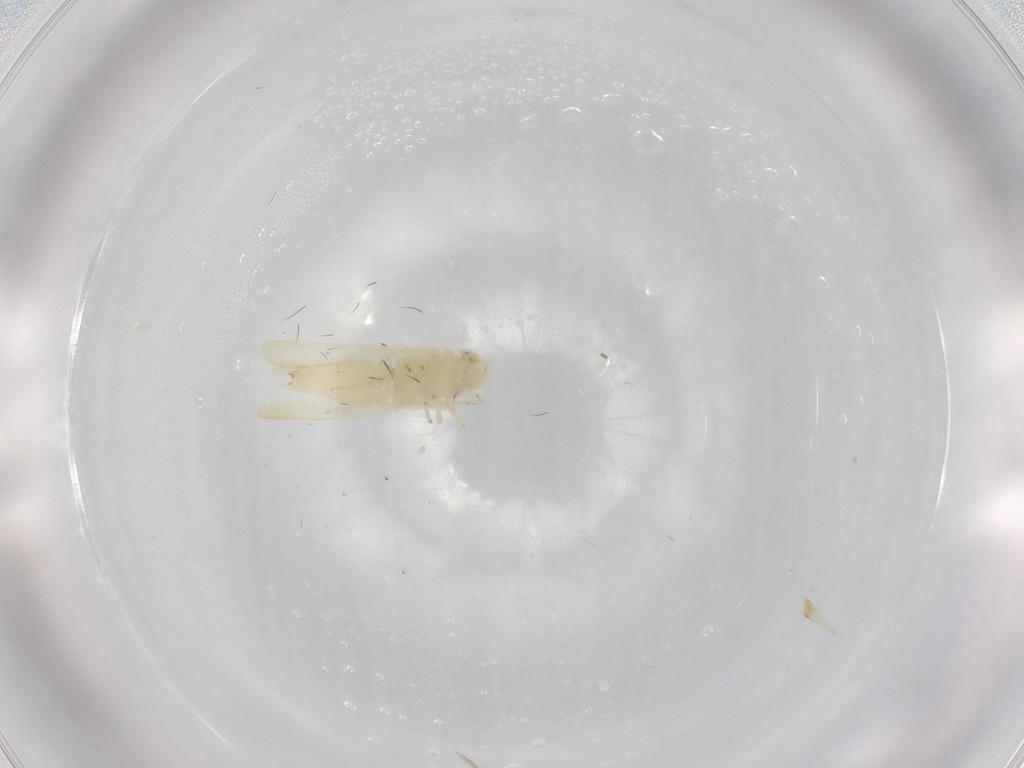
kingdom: Animalia
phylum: Arthropoda
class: Insecta
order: Hemiptera
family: Cicadellidae
